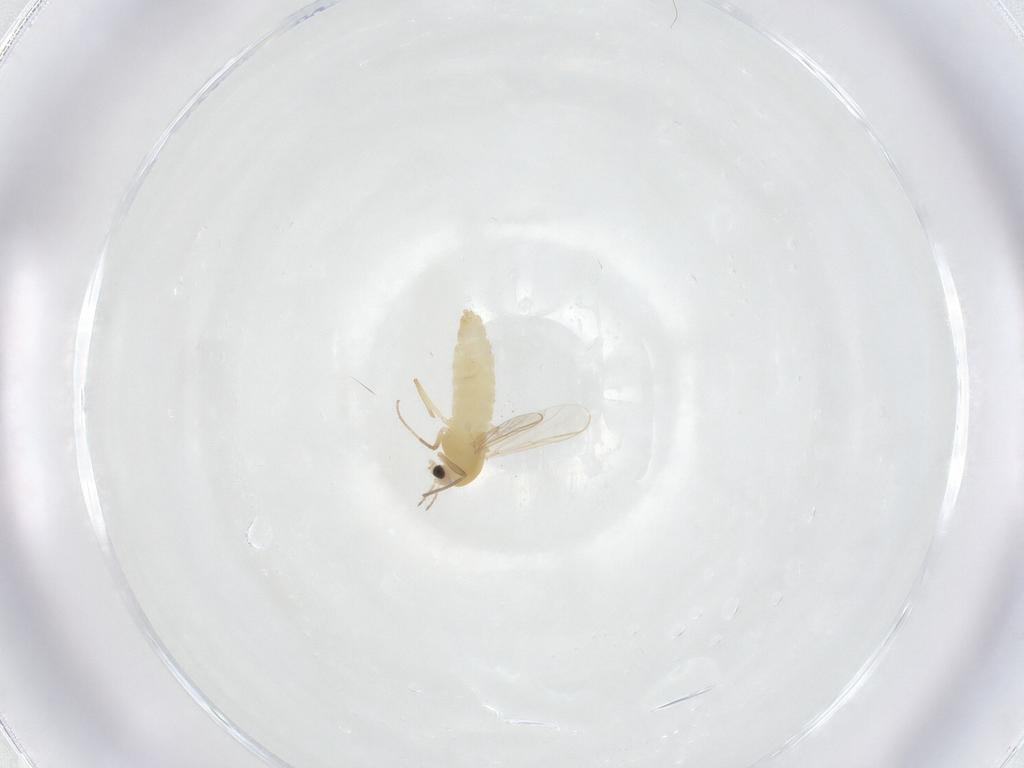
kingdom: Animalia
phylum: Arthropoda
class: Insecta
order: Diptera
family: Chironomidae
